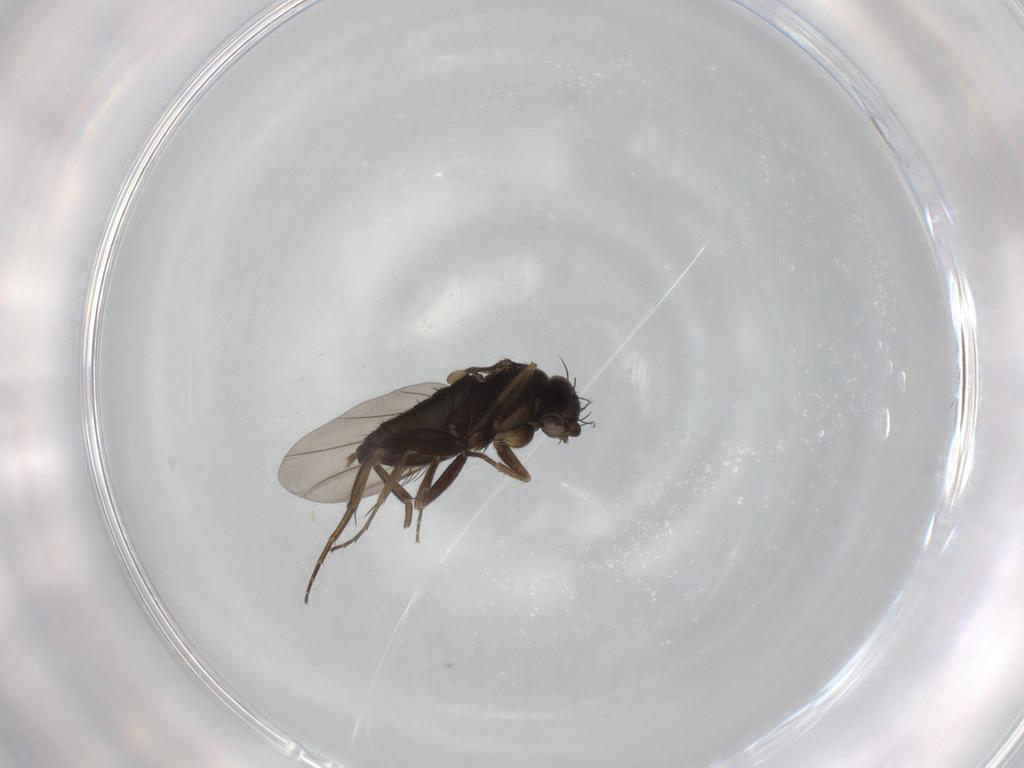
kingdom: Animalia
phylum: Arthropoda
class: Insecta
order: Diptera
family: Phoridae
